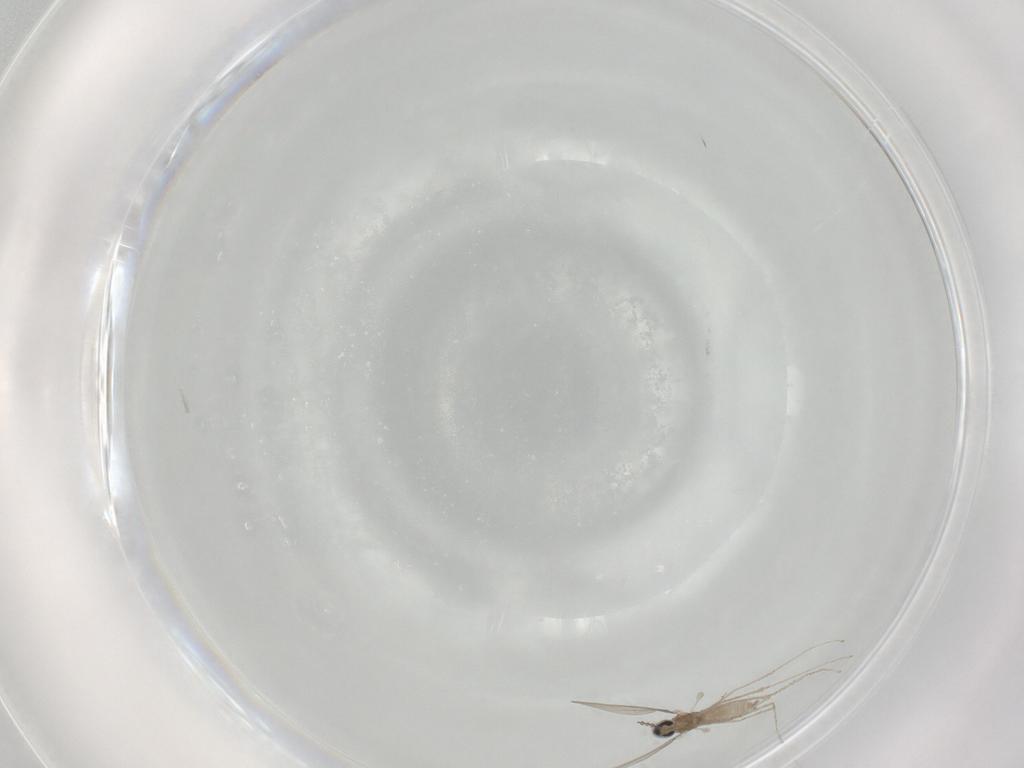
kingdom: Animalia
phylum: Arthropoda
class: Insecta
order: Diptera
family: Cecidomyiidae
